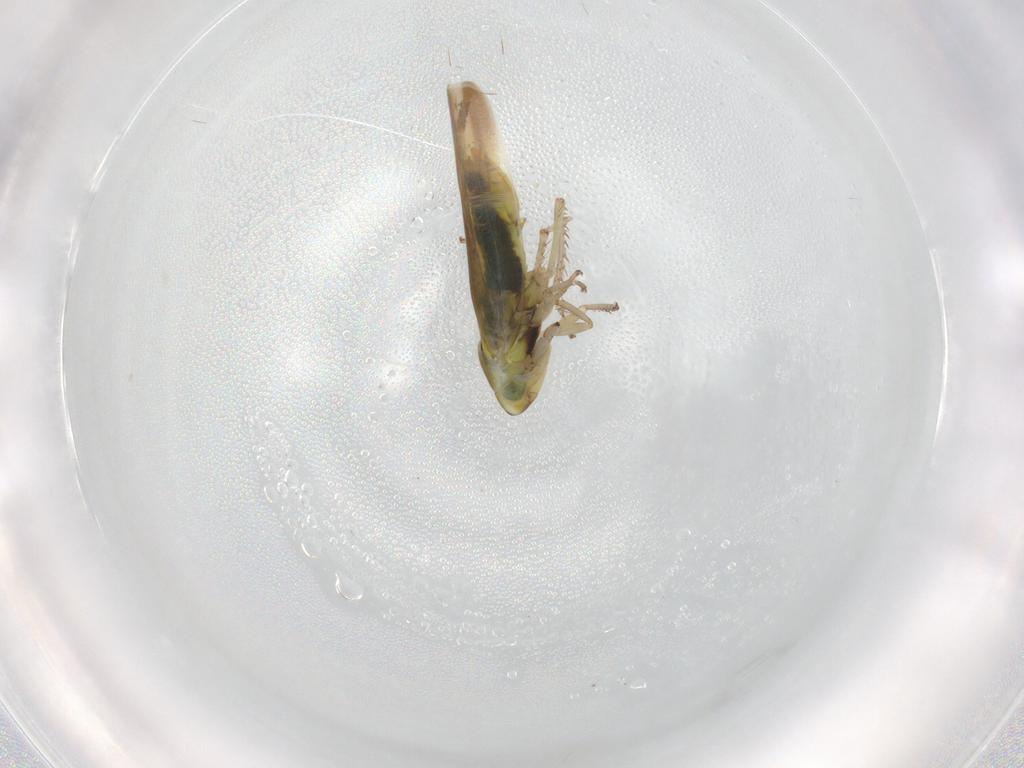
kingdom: Animalia
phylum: Arthropoda
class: Insecta
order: Hemiptera
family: Cicadellidae
